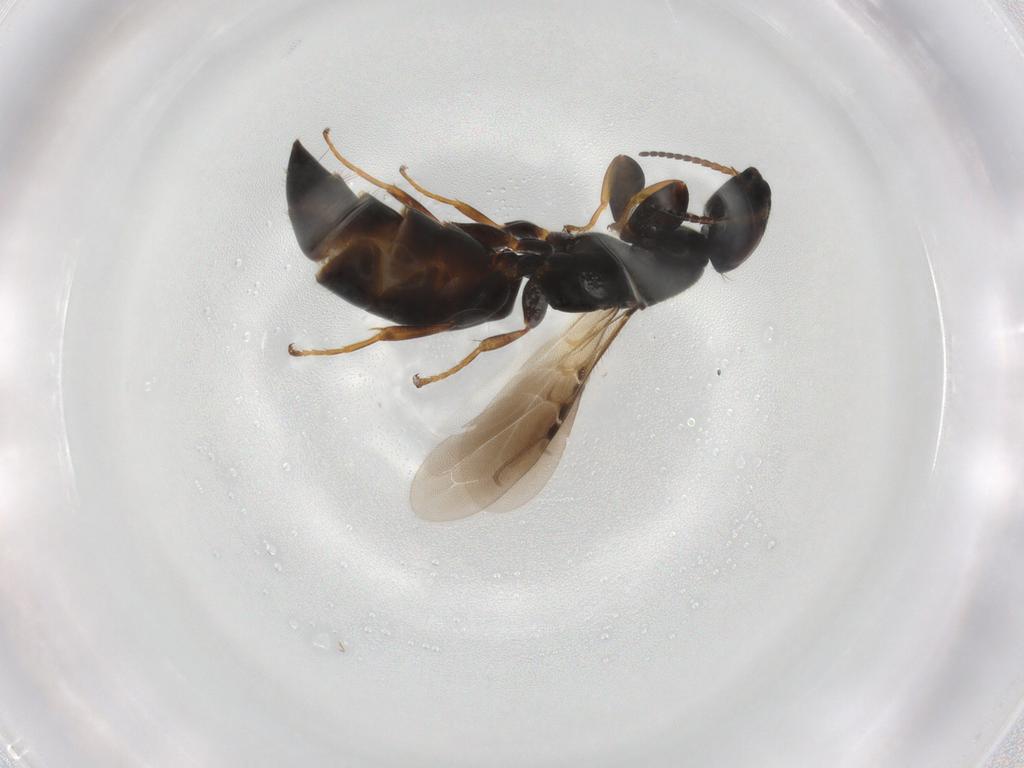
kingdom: Animalia
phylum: Arthropoda
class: Insecta
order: Hymenoptera
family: Bethylidae
